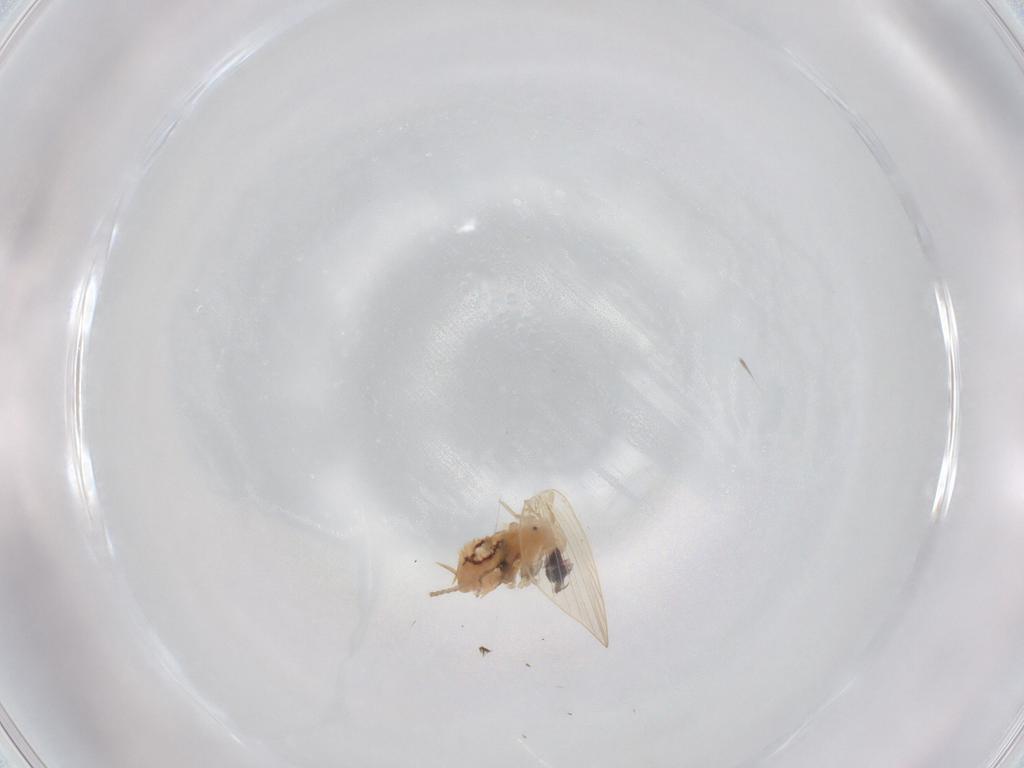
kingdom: Animalia
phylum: Arthropoda
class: Insecta
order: Diptera
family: Psychodidae
